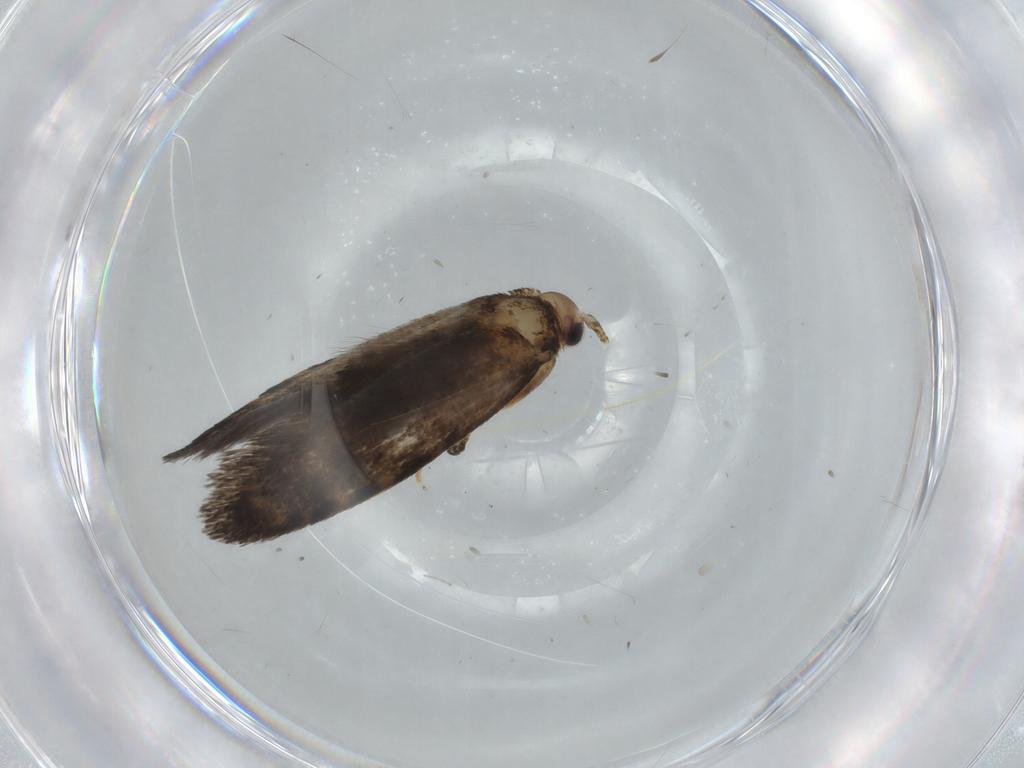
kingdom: Animalia
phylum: Arthropoda
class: Insecta
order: Lepidoptera
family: Tineidae
